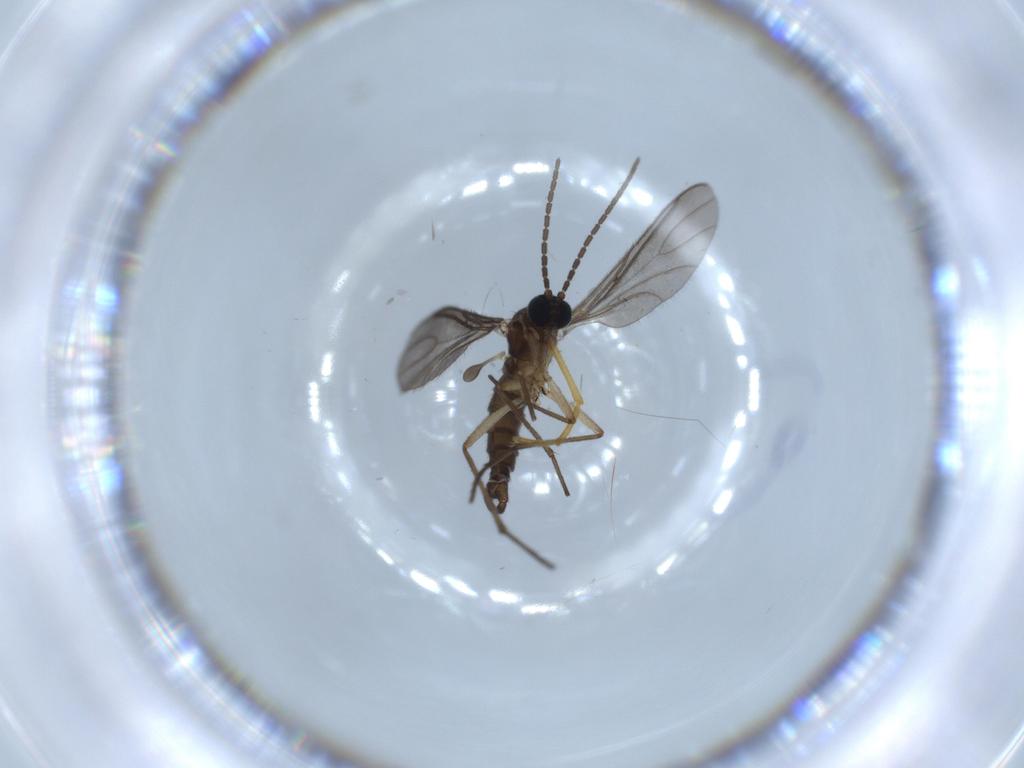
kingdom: Animalia
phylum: Arthropoda
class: Insecta
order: Diptera
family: Sciaridae
